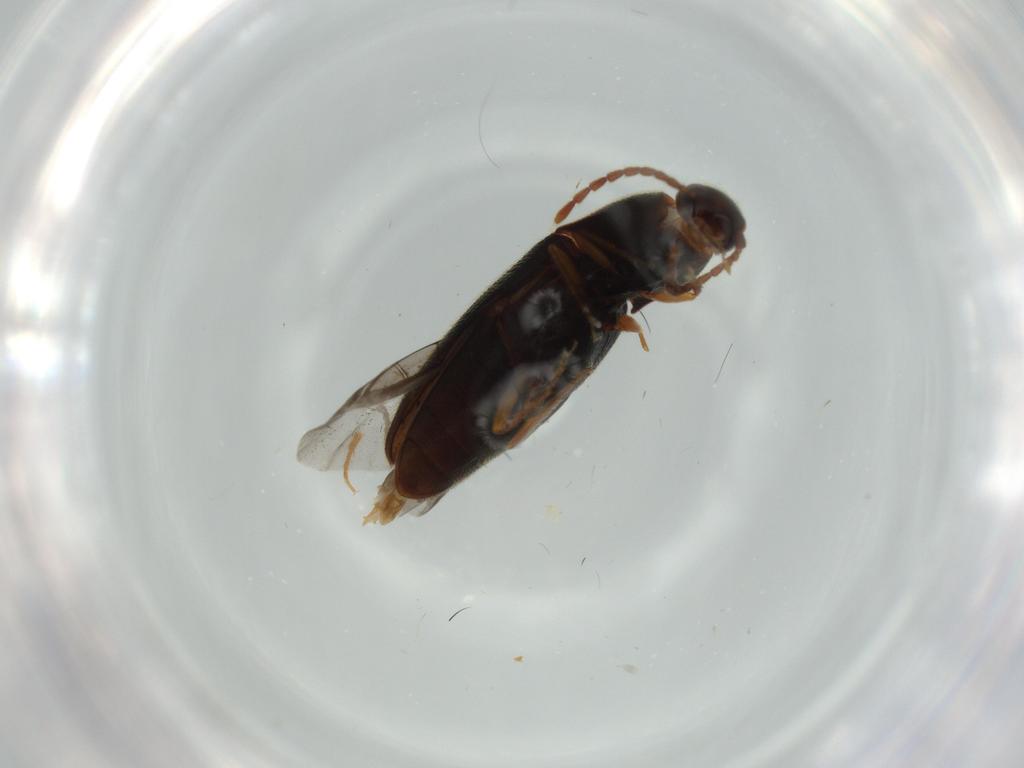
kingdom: Animalia
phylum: Arthropoda
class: Insecta
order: Coleoptera
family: Elateridae
